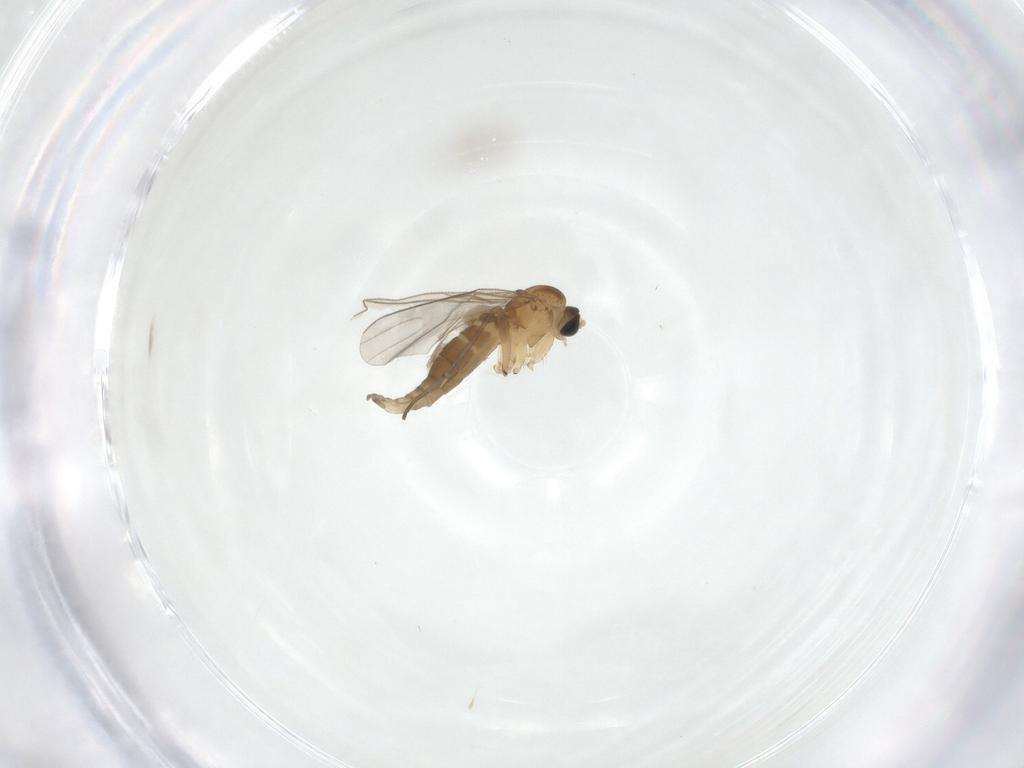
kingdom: Animalia
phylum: Arthropoda
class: Insecta
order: Diptera
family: Sciaridae
